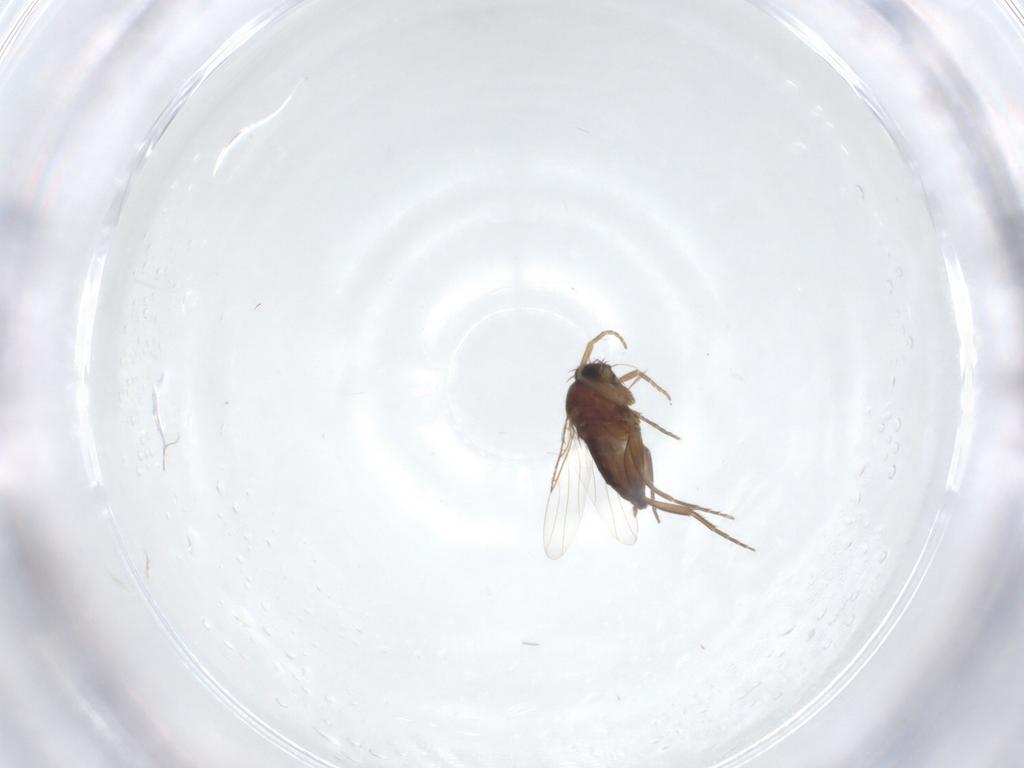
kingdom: Animalia
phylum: Arthropoda
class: Insecta
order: Diptera
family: Phoridae
